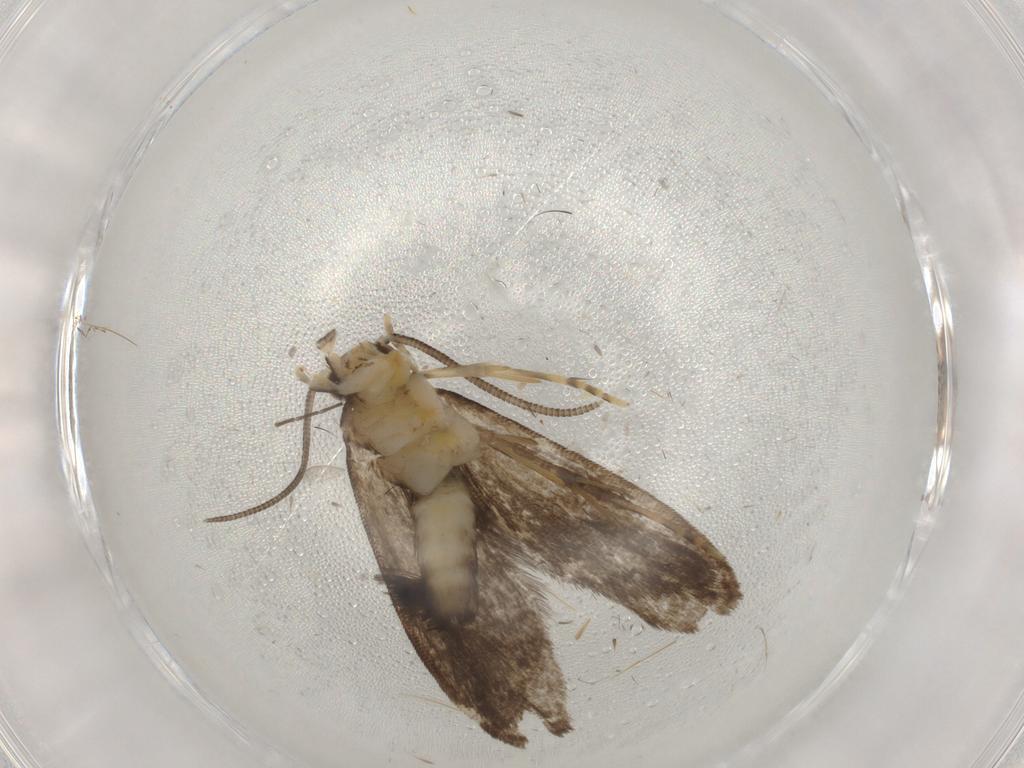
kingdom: Animalia
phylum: Arthropoda
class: Insecta
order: Lepidoptera
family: Dryadaulidae
